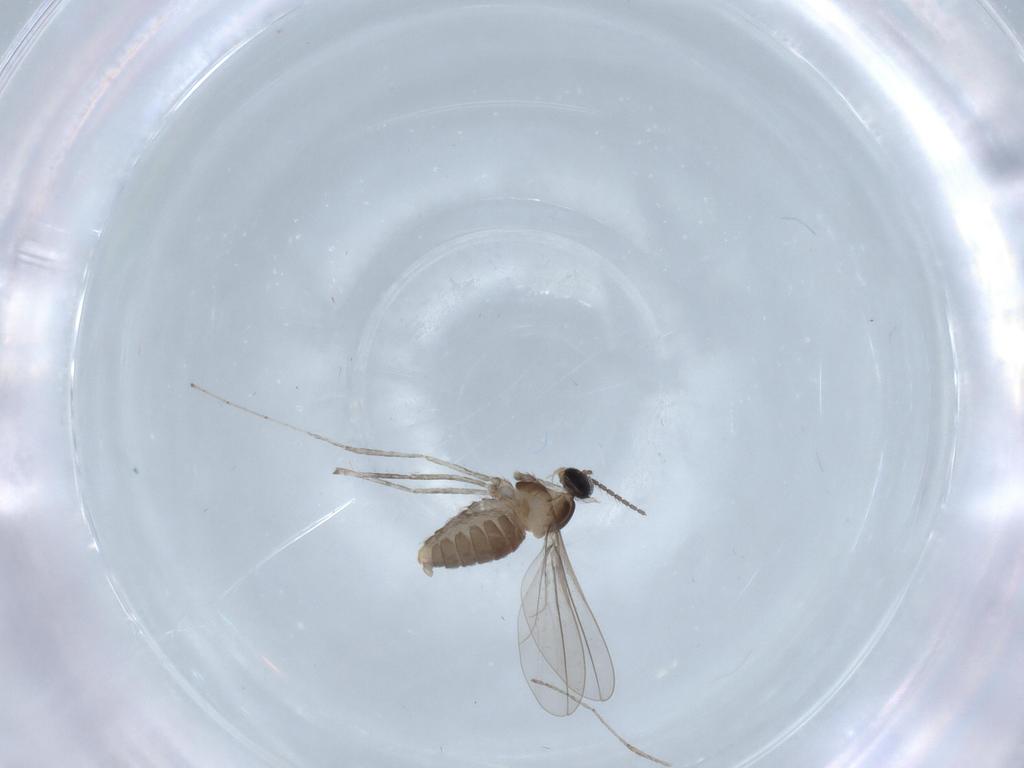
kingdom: Animalia
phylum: Arthropoda
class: Insecta
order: Diptera
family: Cecidomyiidae
